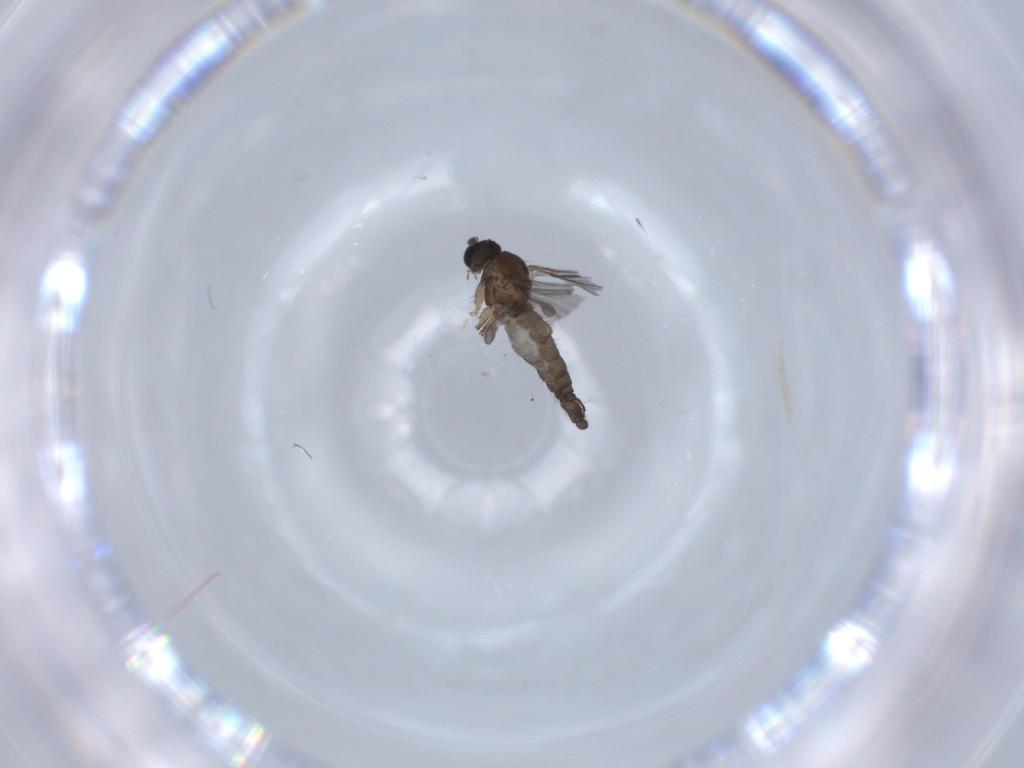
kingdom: Animalia
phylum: Arthropoda
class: Insecta
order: Diptera
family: Sciaridae
